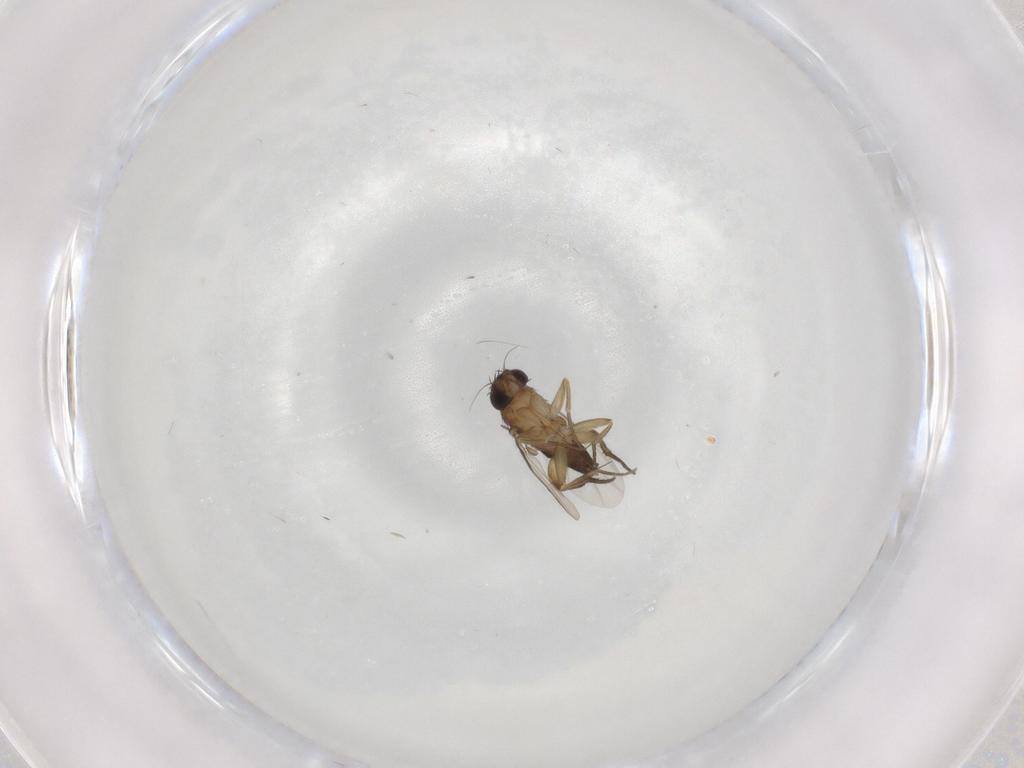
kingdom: Animalia
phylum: Arthropoda
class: Insecta
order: Diptera
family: Phoridae
